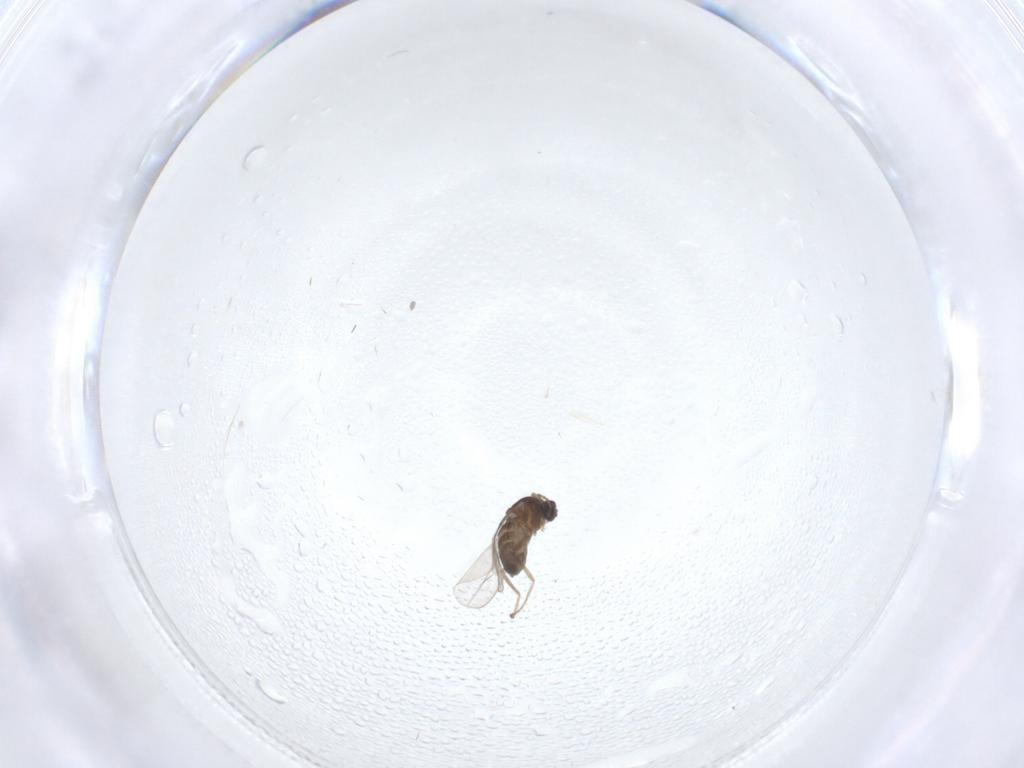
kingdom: Animalia
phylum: Arthropoda
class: Insecta
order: Diptera
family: Cecidomyiidae
